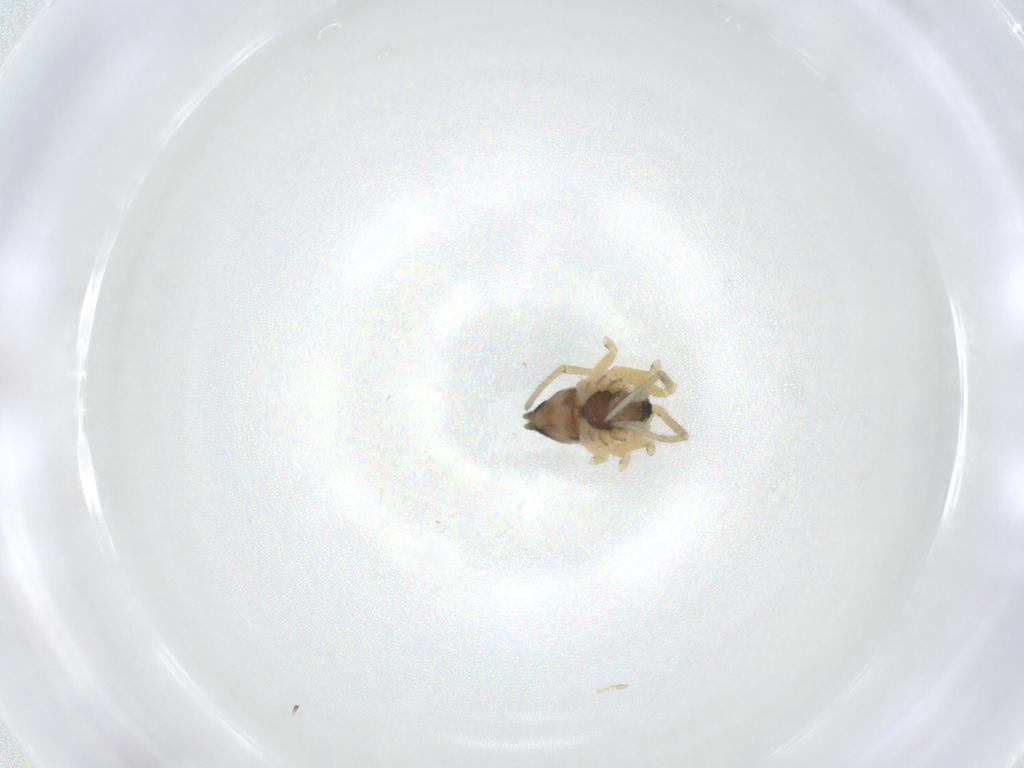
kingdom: Animalia
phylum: Arthropoda
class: Arachnida
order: Araneae
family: Linyphiidae
